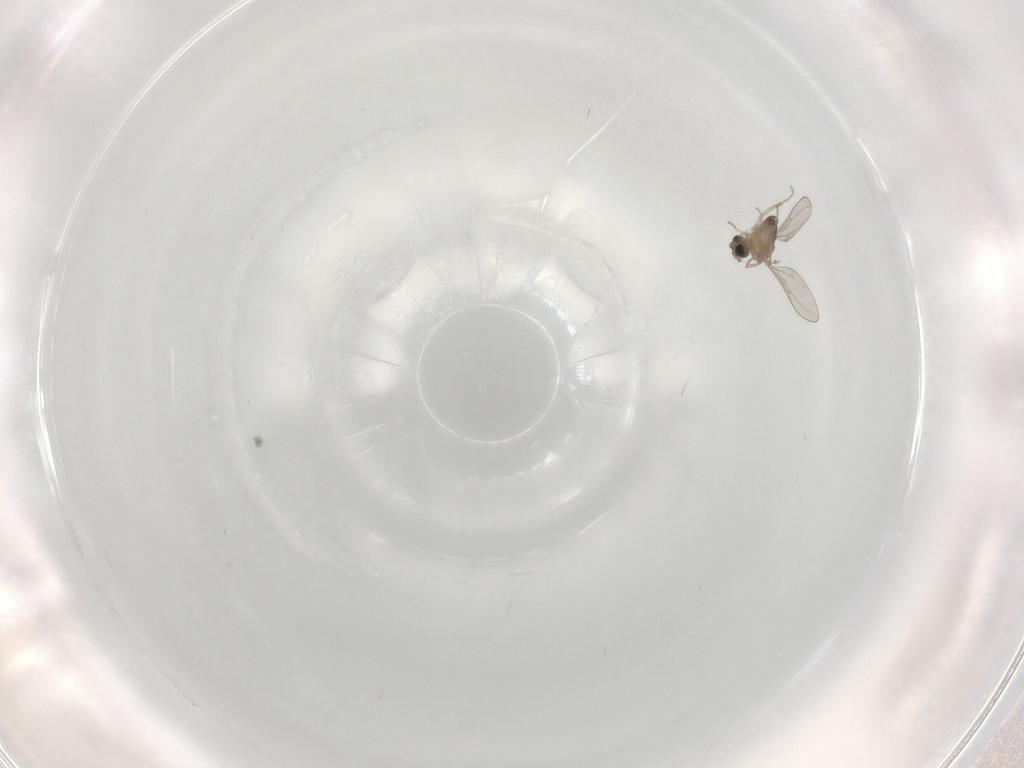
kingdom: Animalia
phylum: Arthropoda
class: Insecta
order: Diptera
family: Cecidomyiidae
